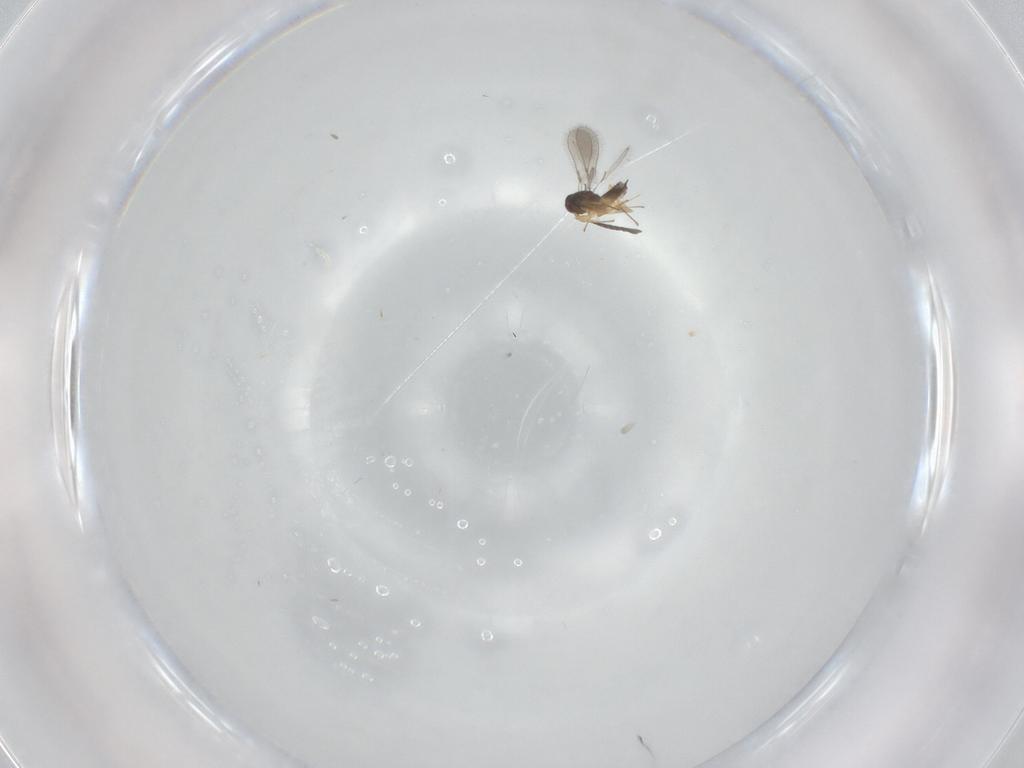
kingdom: Animalia
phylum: Arthropoda
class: Insecta
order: Hymenoptera
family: Mymaridae
